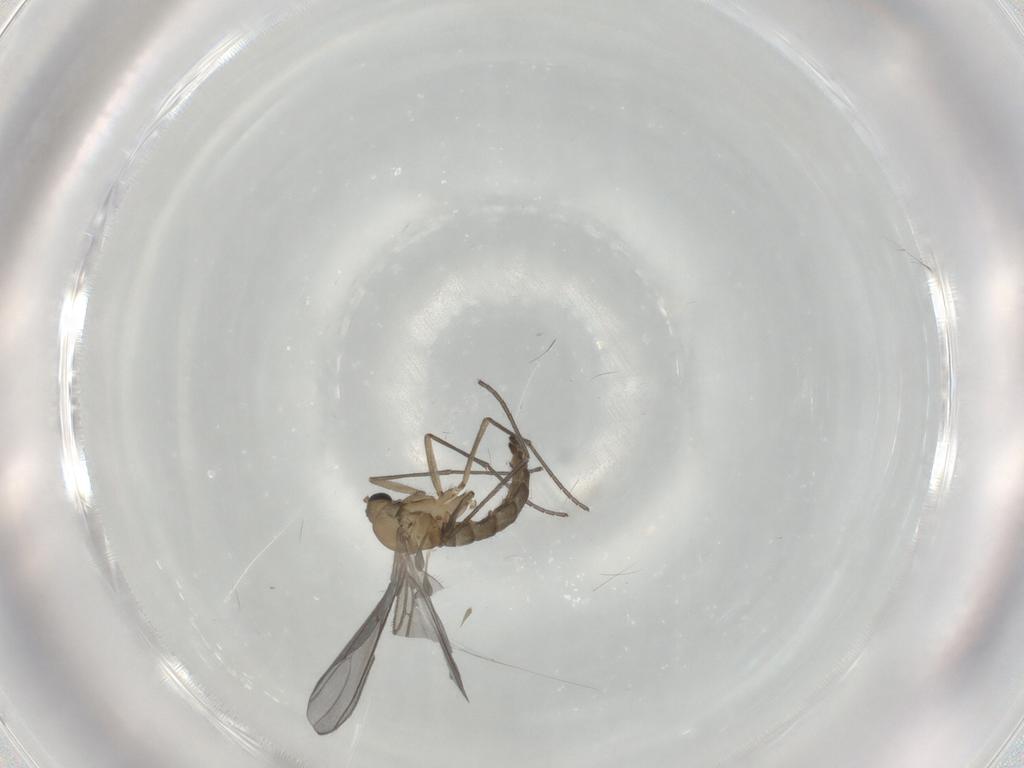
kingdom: Animalia
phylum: Arthropoda
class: Insecta
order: Diptera
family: Sciaridae
